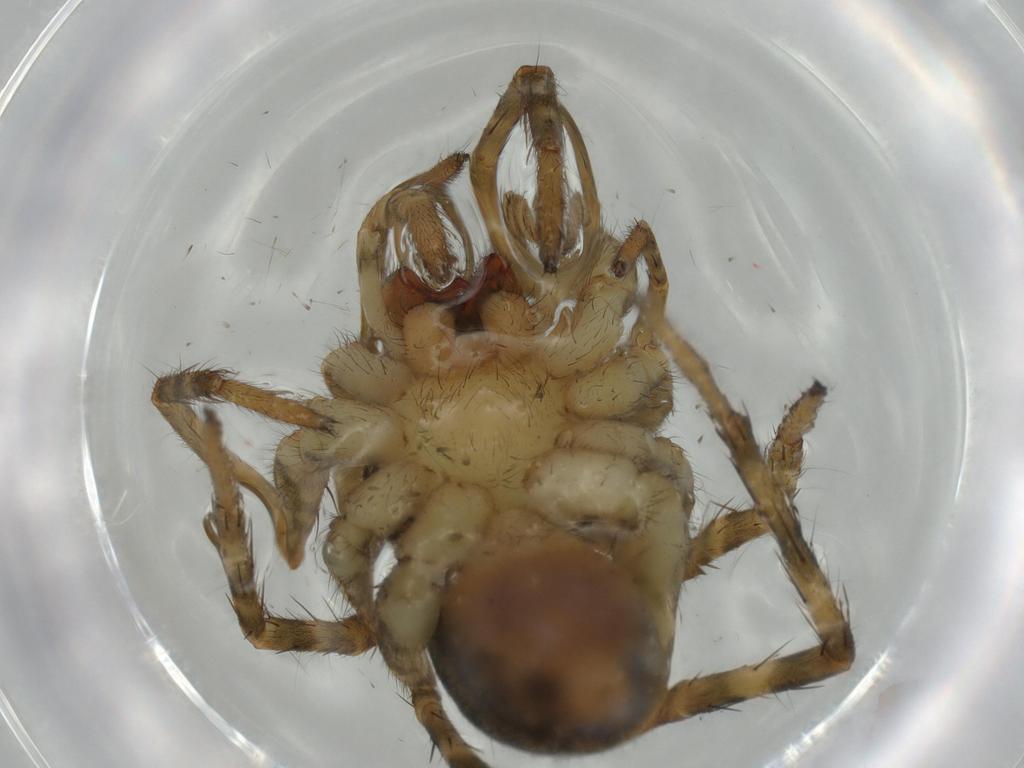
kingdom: Animalia
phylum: Arthropoda
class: Arachnida
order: Araneae
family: Lycosidae
